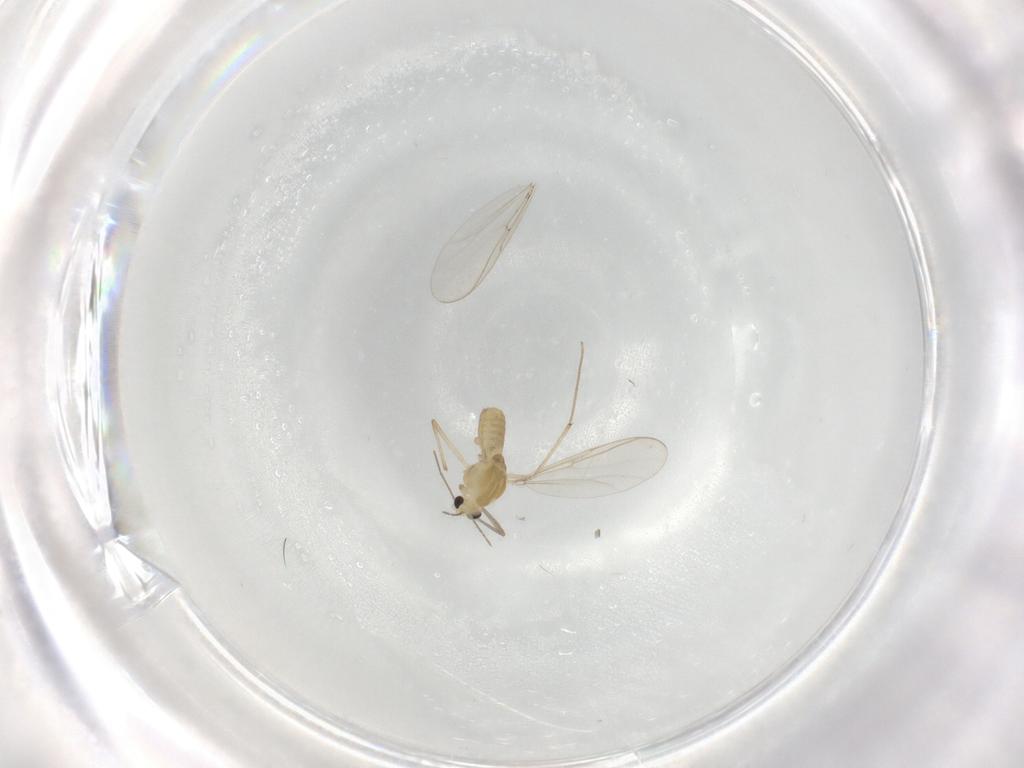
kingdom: Animalia
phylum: Arthropoda
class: Insecta
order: Diptera
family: Chironomidae
